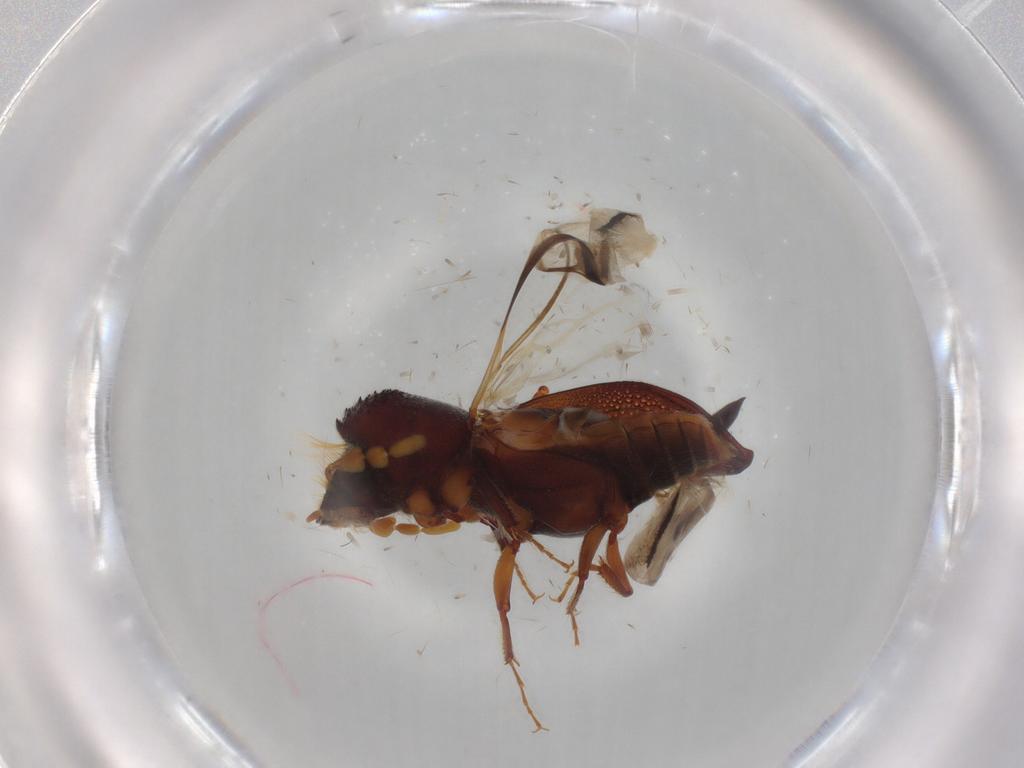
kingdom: Animalia
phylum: Arthropoda
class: Insecta
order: Coleoptera
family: Bostrichidae
